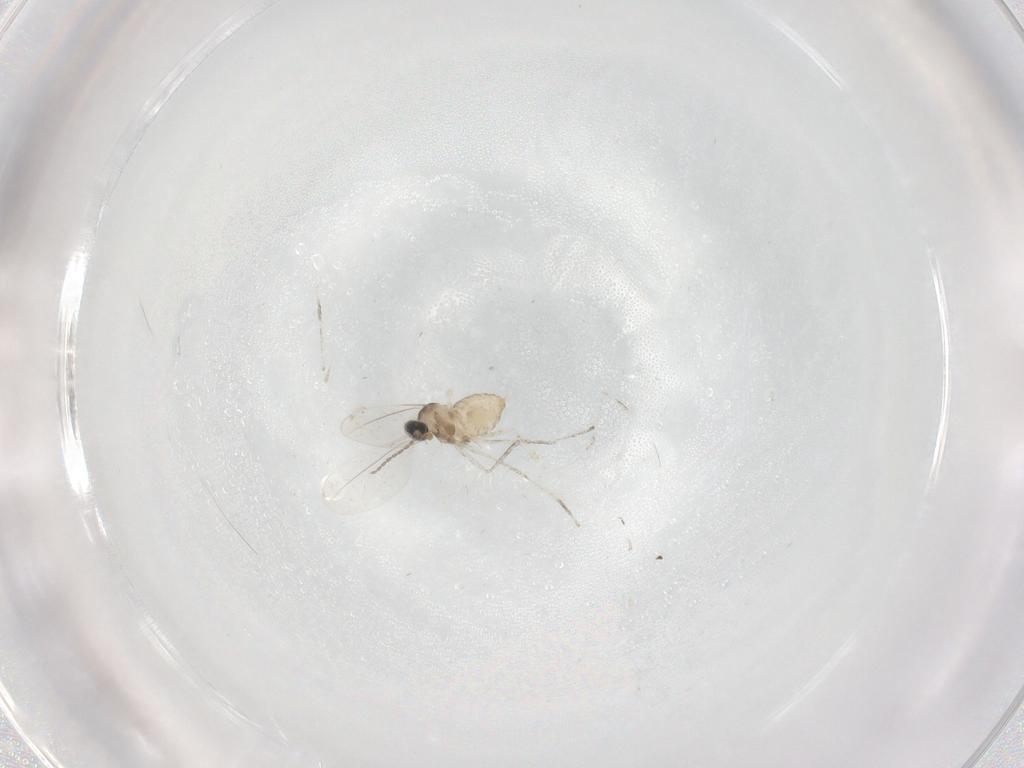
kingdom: Animalia
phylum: Arthropoda
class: Insecta
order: Diptera
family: Cecidomyiidae
